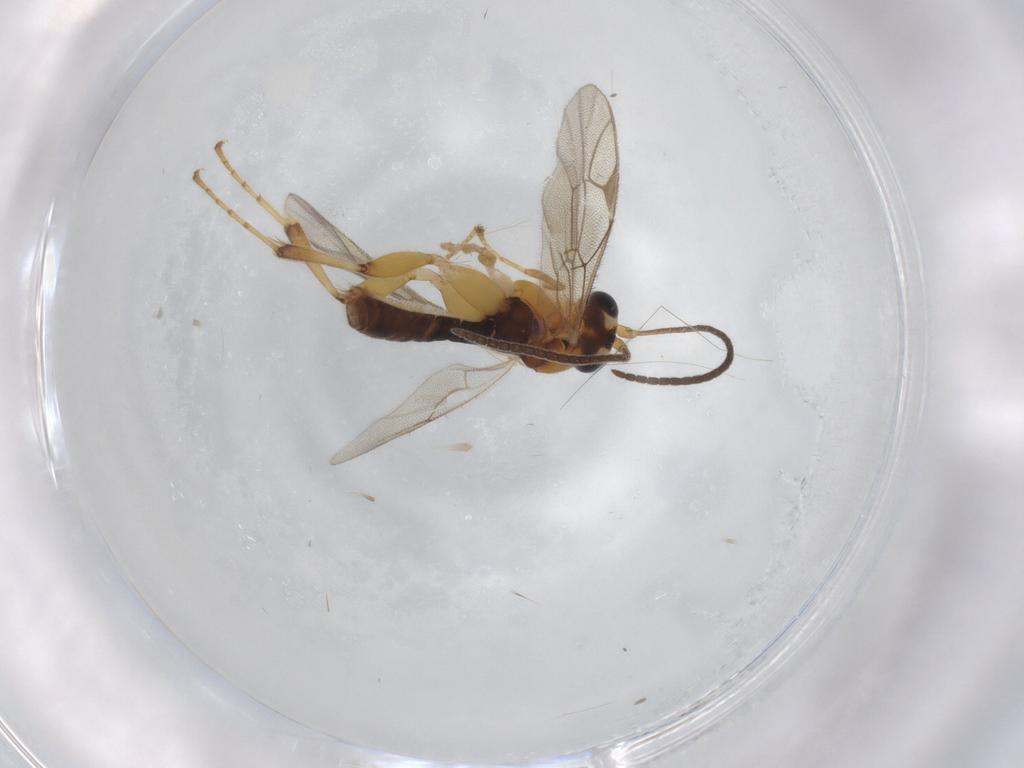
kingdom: Animalia
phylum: Arthropoda
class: Insecta
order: Hymenoptera
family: Ichneumonidae
